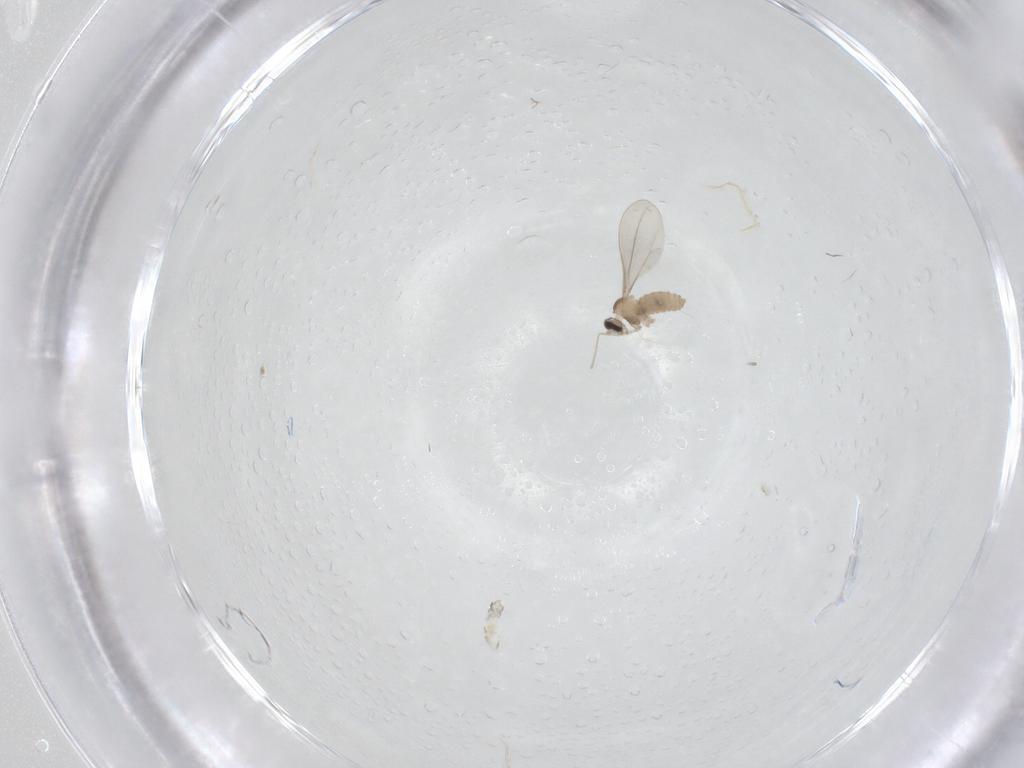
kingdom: Animalia
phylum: Arthropoda
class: Insecta
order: Diptera
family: Cecidomyiidae
